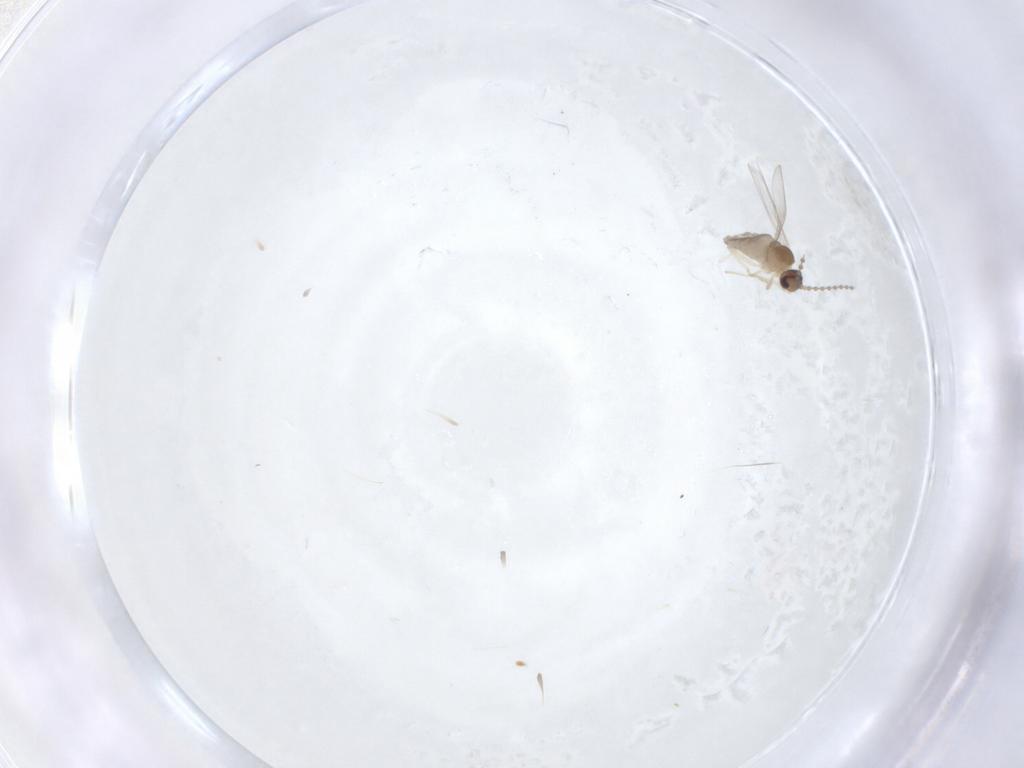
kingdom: Animalia
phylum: Arthropoda
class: Insecta
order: Diptera
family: Cecidomyiidae
